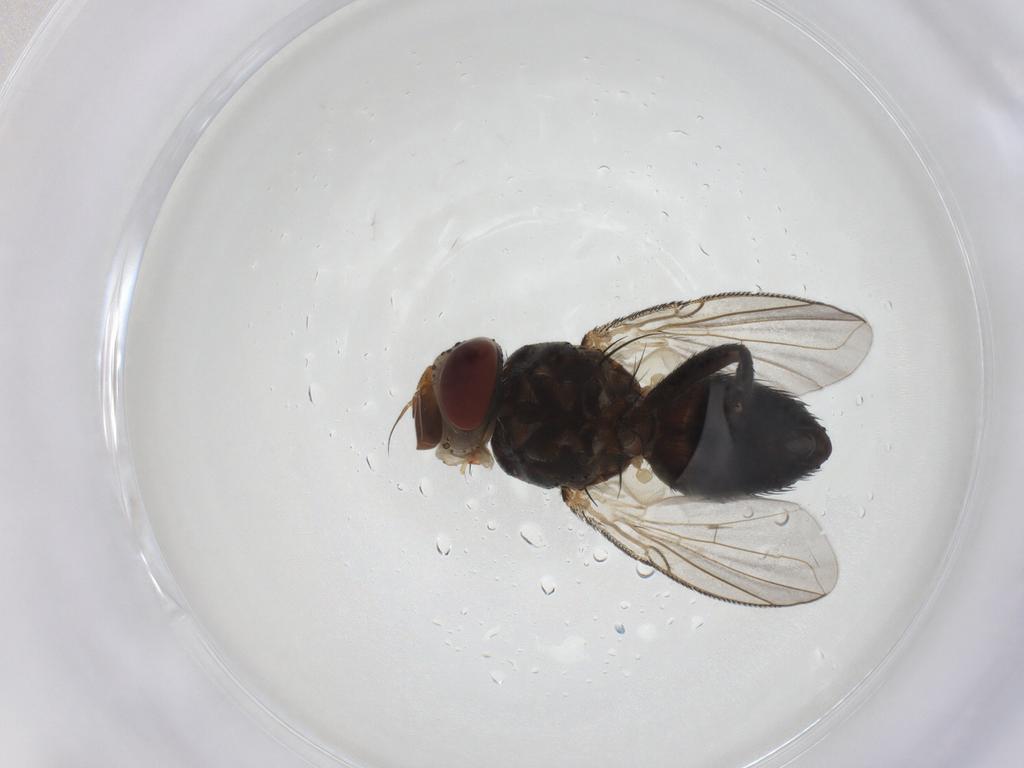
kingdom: Animalia
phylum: Arthropoda
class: Insecta
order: Diptera
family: Tachinidae
